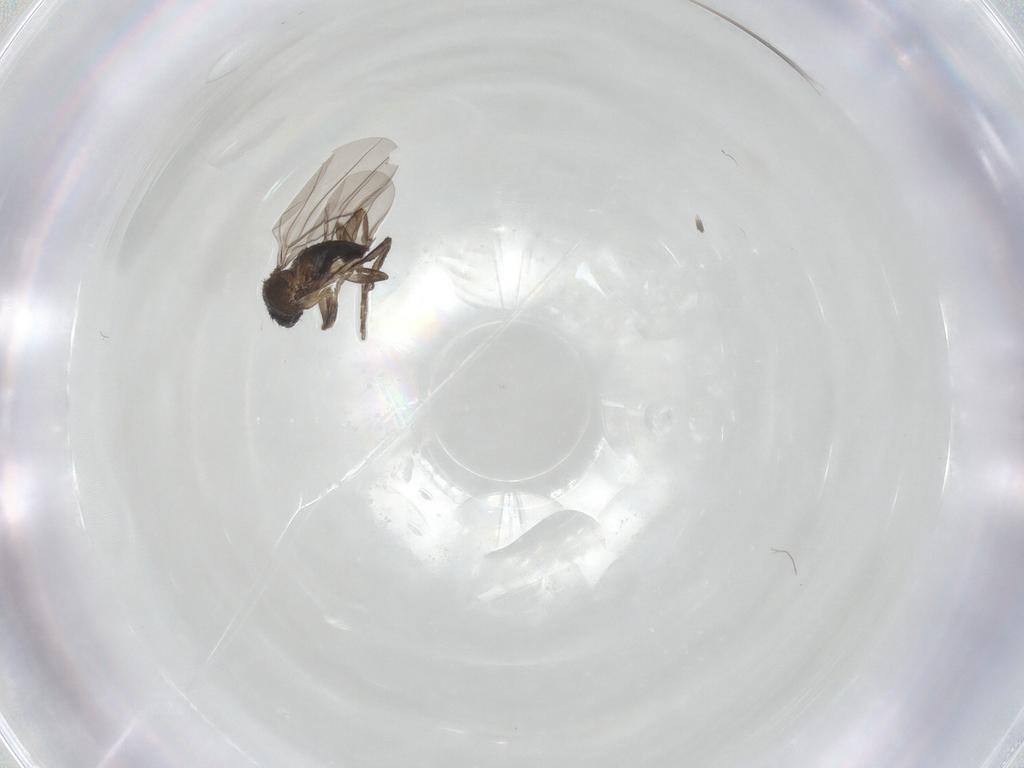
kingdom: Animalia
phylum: Arthropoda
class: Insecta
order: Diptera
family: Phoridae
